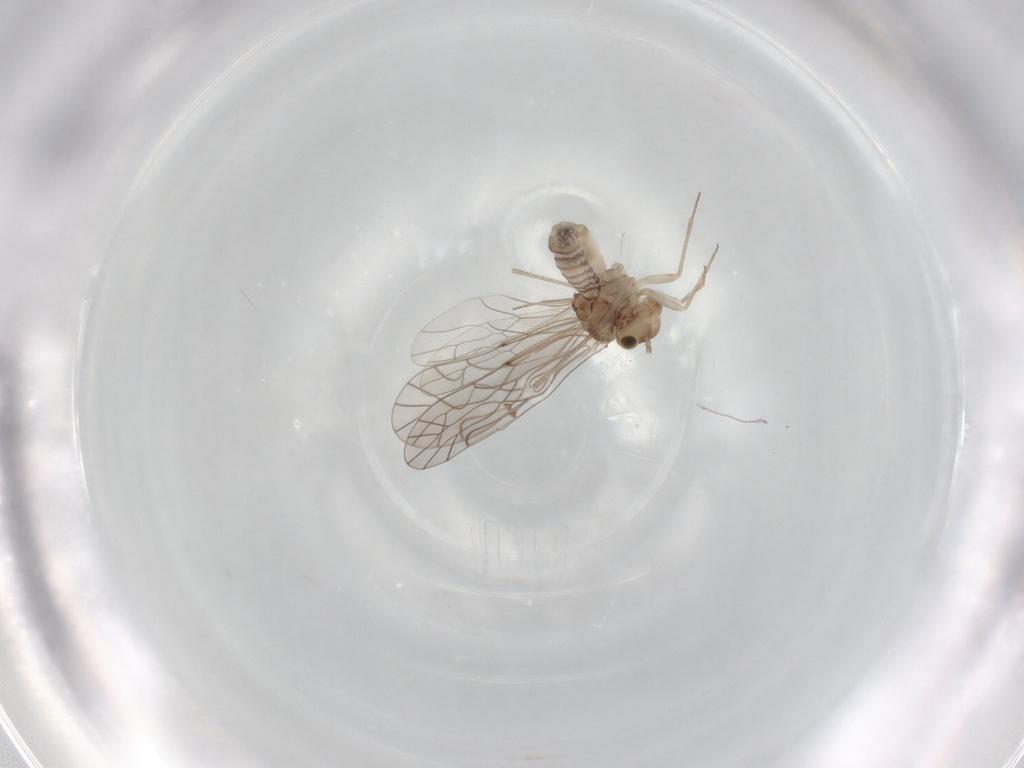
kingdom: Animalia
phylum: Arthropoda
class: Insecta
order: Psocodea
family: Lachesillidae
